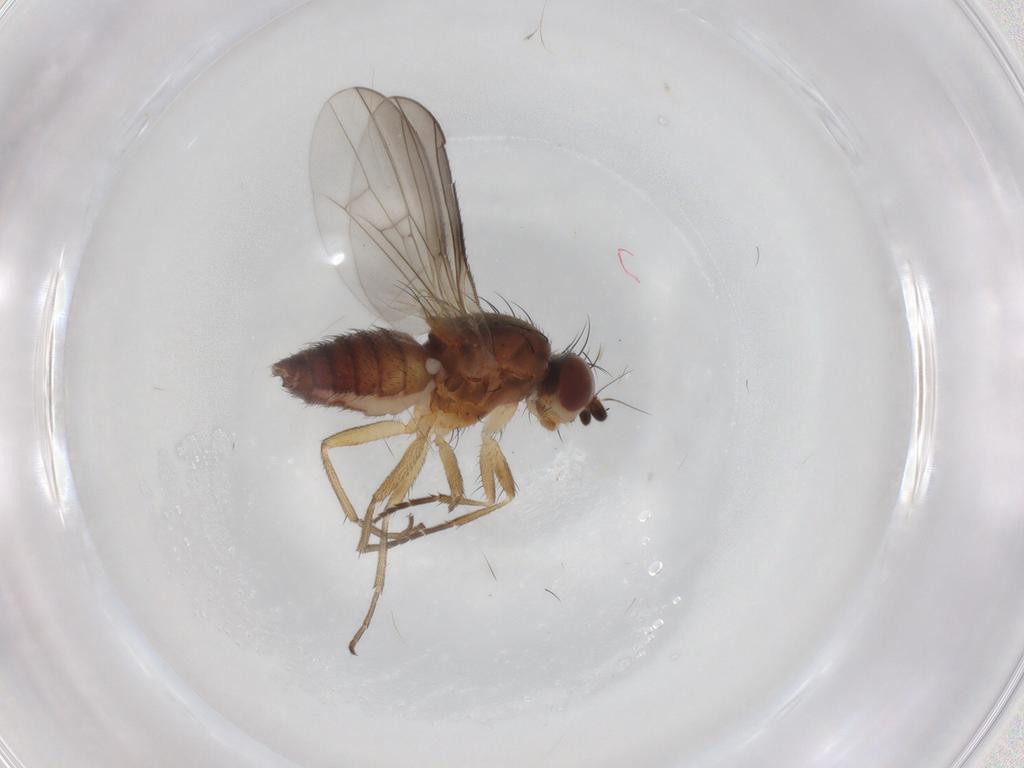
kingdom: Animalia
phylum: Arthropoda
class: Insecta
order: Diptera
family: Heleomyzidae
